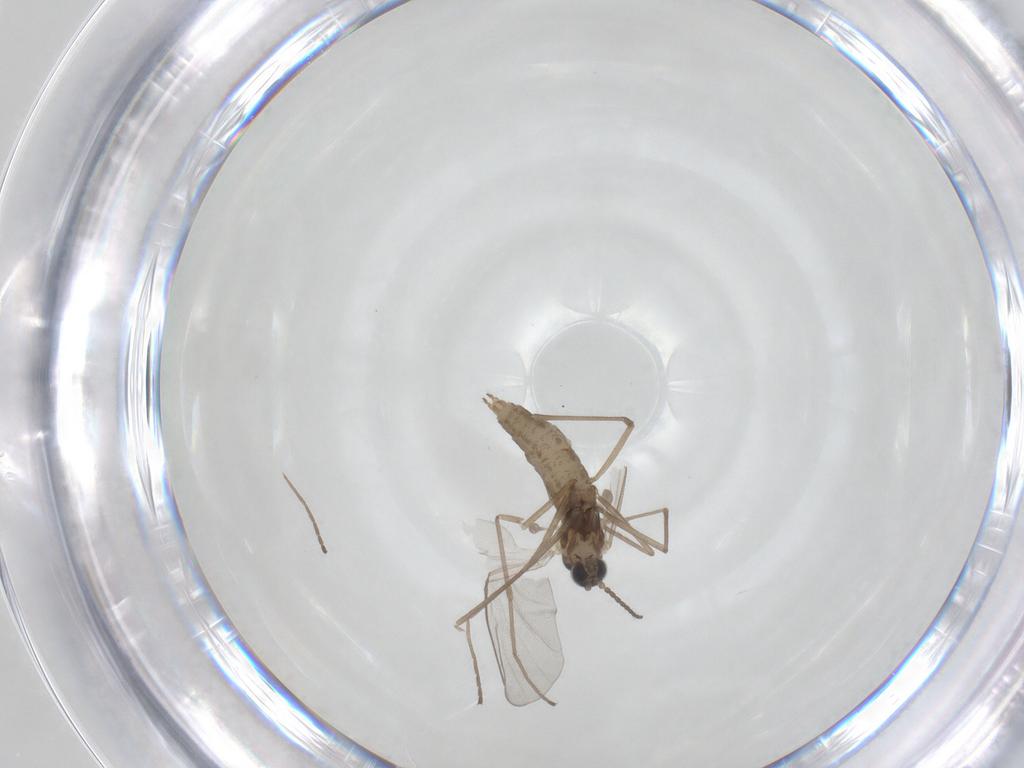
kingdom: Animalia
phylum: Arthropoda
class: Insecta
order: Diptera
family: Cecidomyiidae
